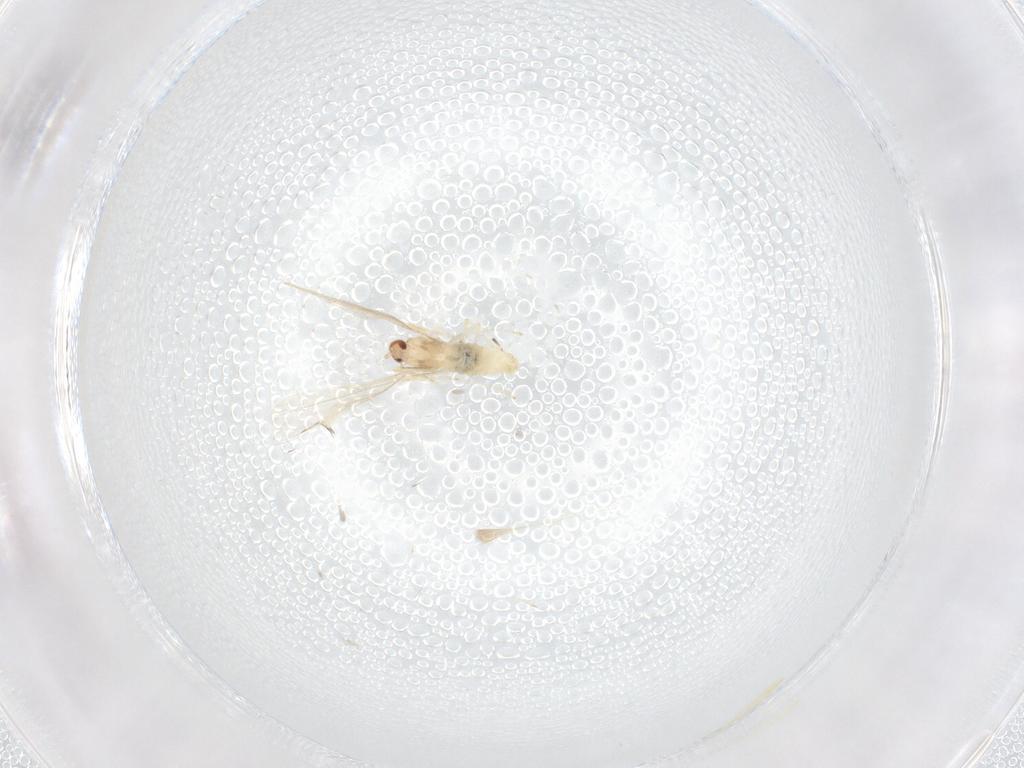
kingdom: Animalia
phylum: Arthropoda
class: Insecta
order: Diptera
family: Cecidomyiidae
